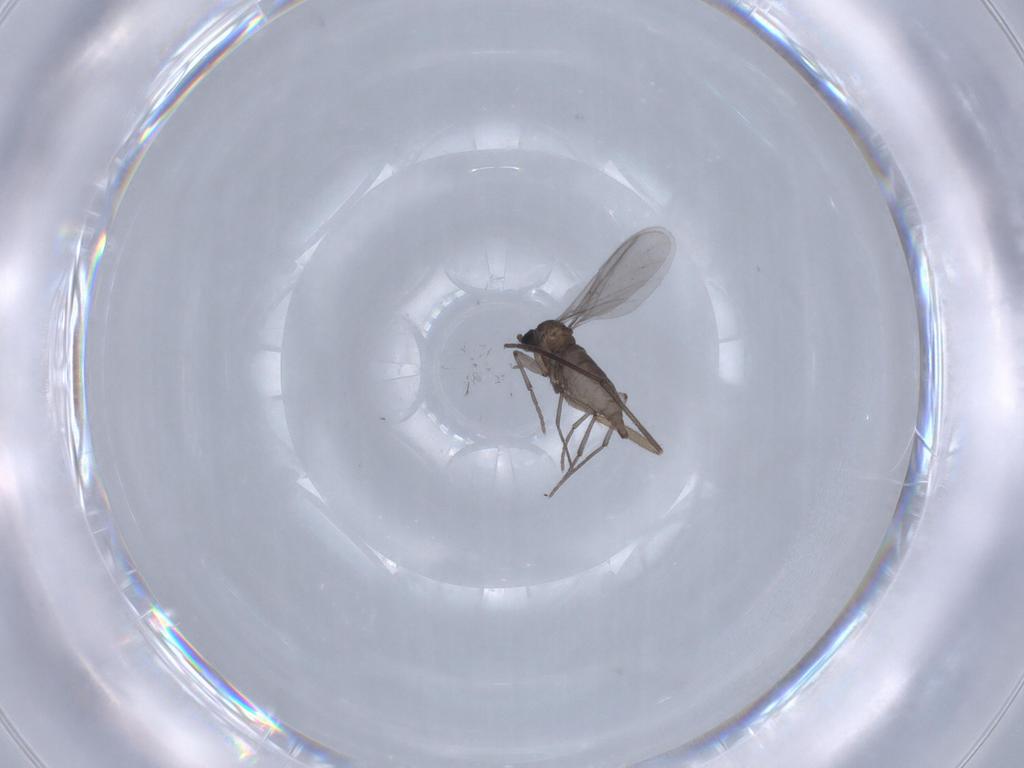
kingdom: Animalia
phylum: Arthropoda
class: Insecta
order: Diptera
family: Sciaridae
